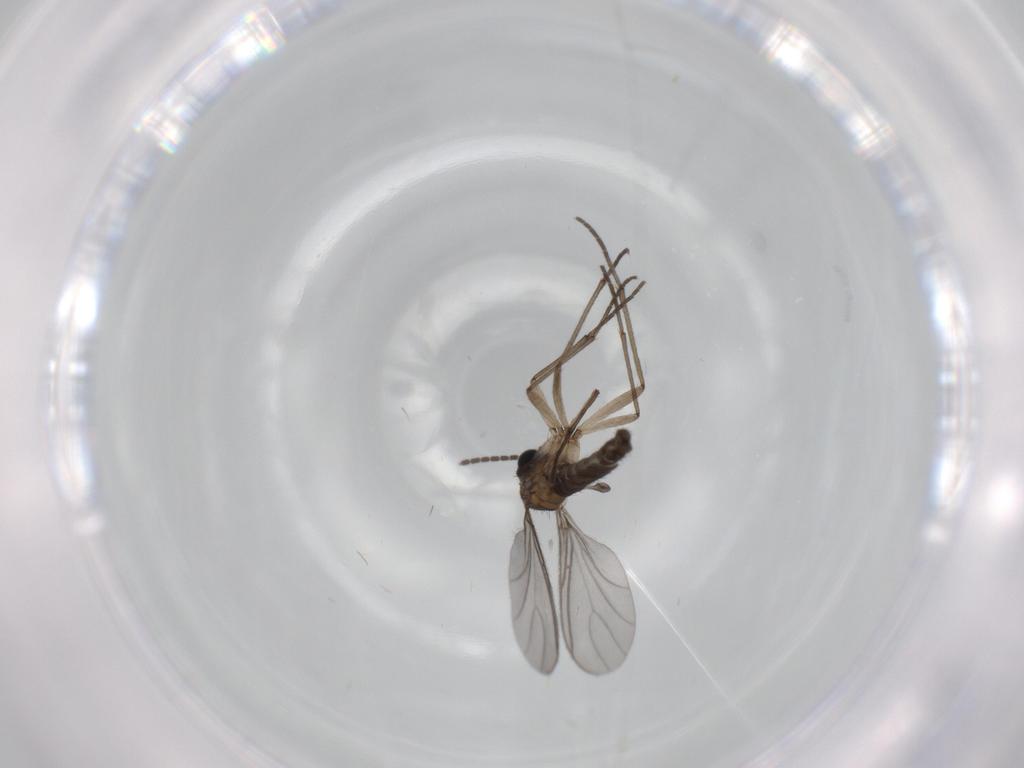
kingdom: Animalia
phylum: Arthropoda
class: Insecta
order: Diptera
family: Sciaridae
